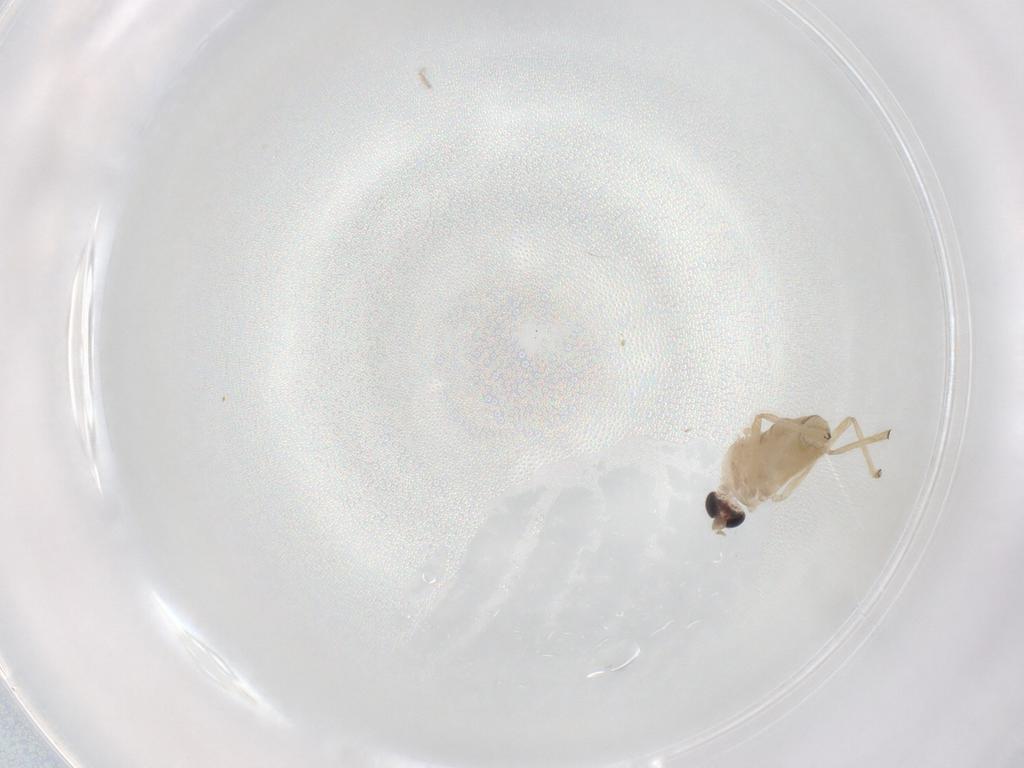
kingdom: Animalia
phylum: Arthropoda
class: Insecta
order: Diptera
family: Chironomidae
